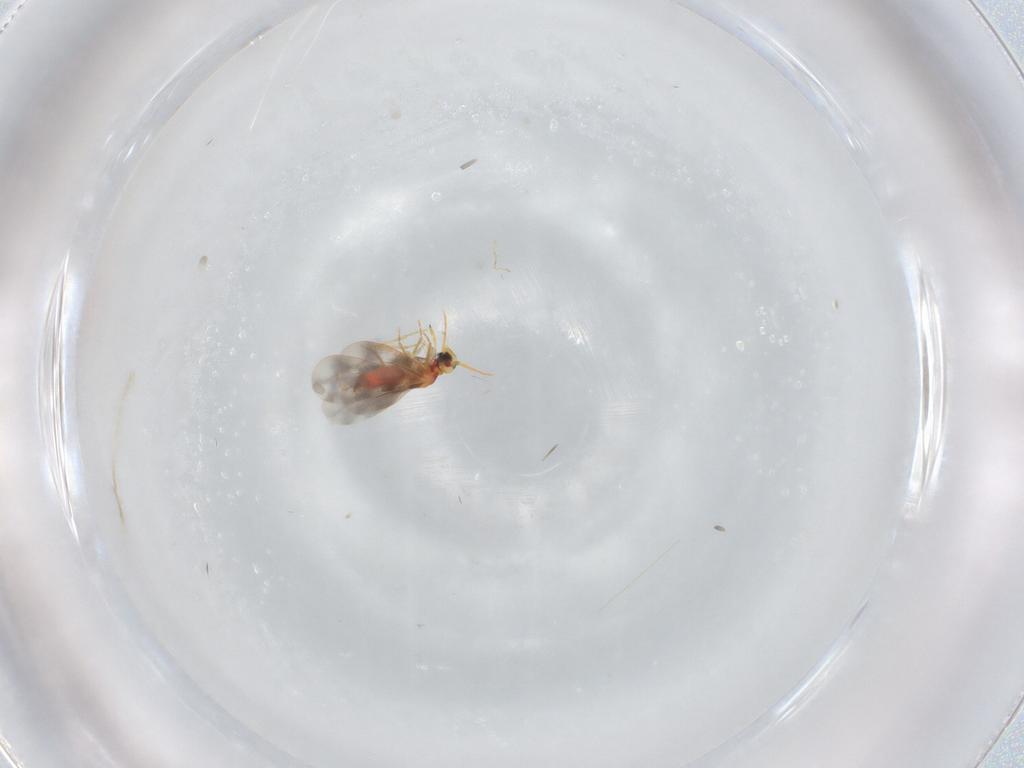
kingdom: Animalia
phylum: Arthropoda
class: Insecta
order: Hemiptera
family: Aleyrodidae
